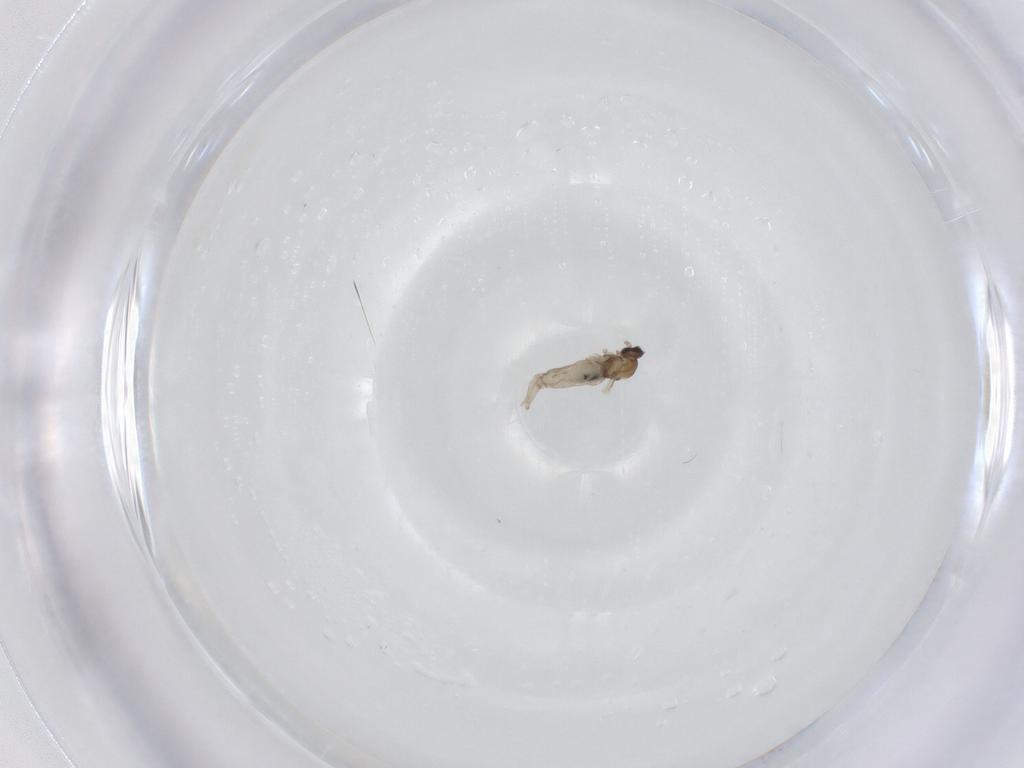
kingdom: Animalia
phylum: Arthropoda
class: Insecta
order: Diptera
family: Cecidomyiidae
